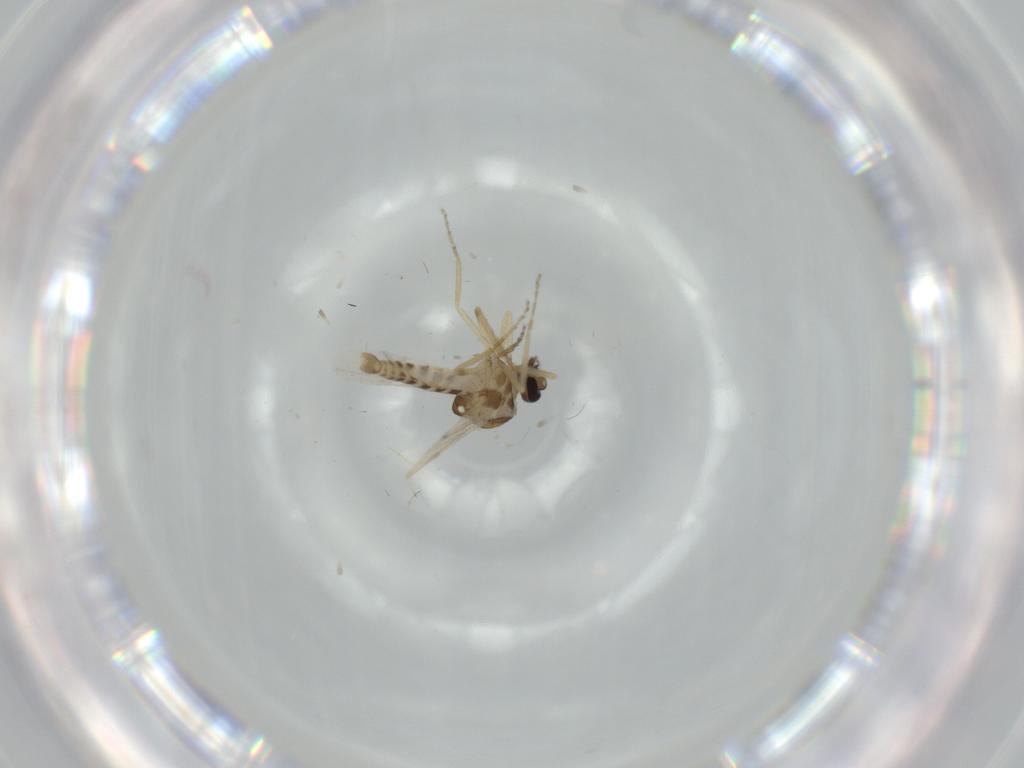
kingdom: Animalia
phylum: Arthropoda
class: Insecta
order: Diptera
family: Ceratopogonidae
